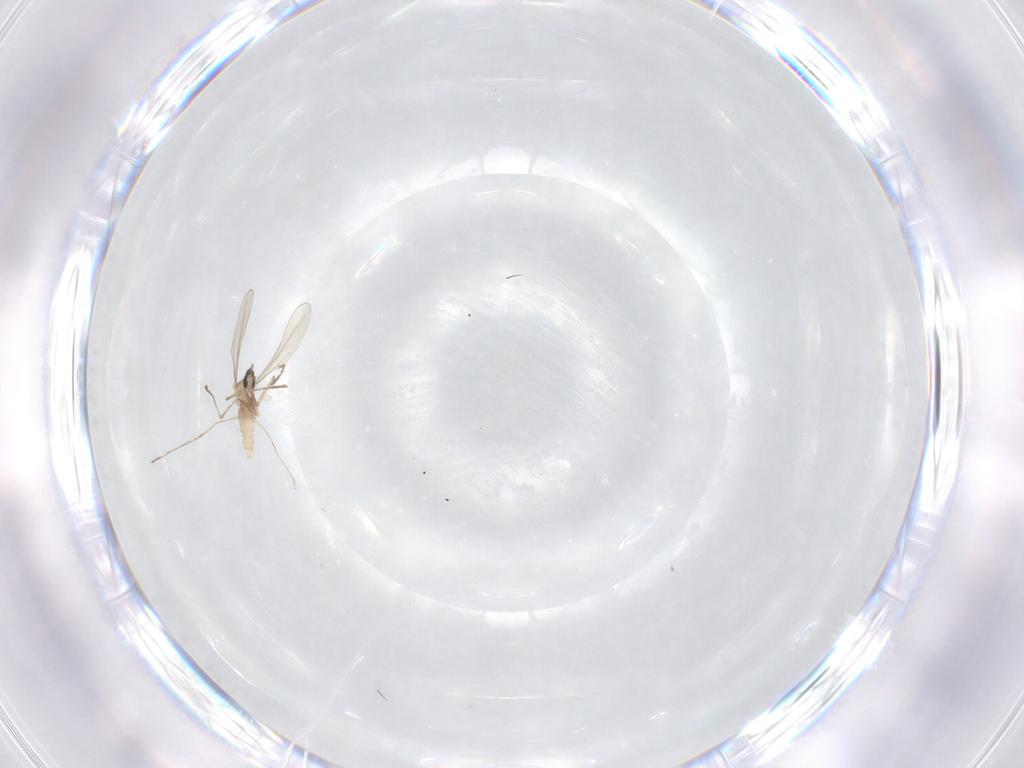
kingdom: Animalia
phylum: Arthropoda
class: Insecta
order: Diptera
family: Cecidomyiidae
